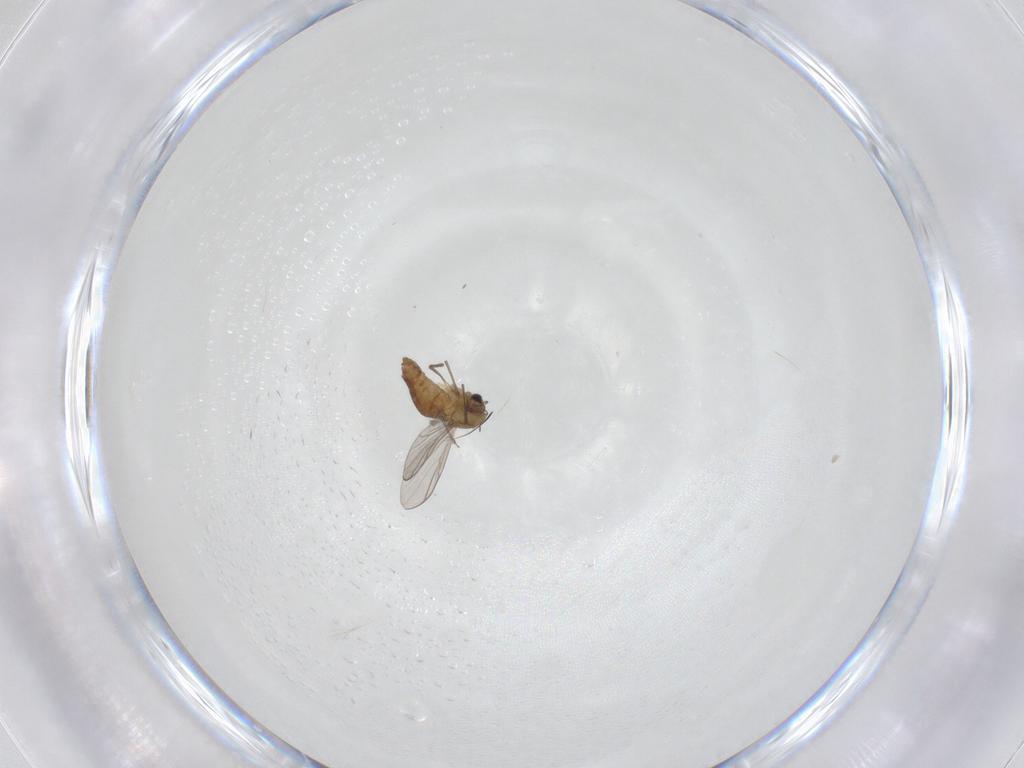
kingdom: Animalia
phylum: Arthropoda
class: Insecta
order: Diptera
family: Chironomidae
